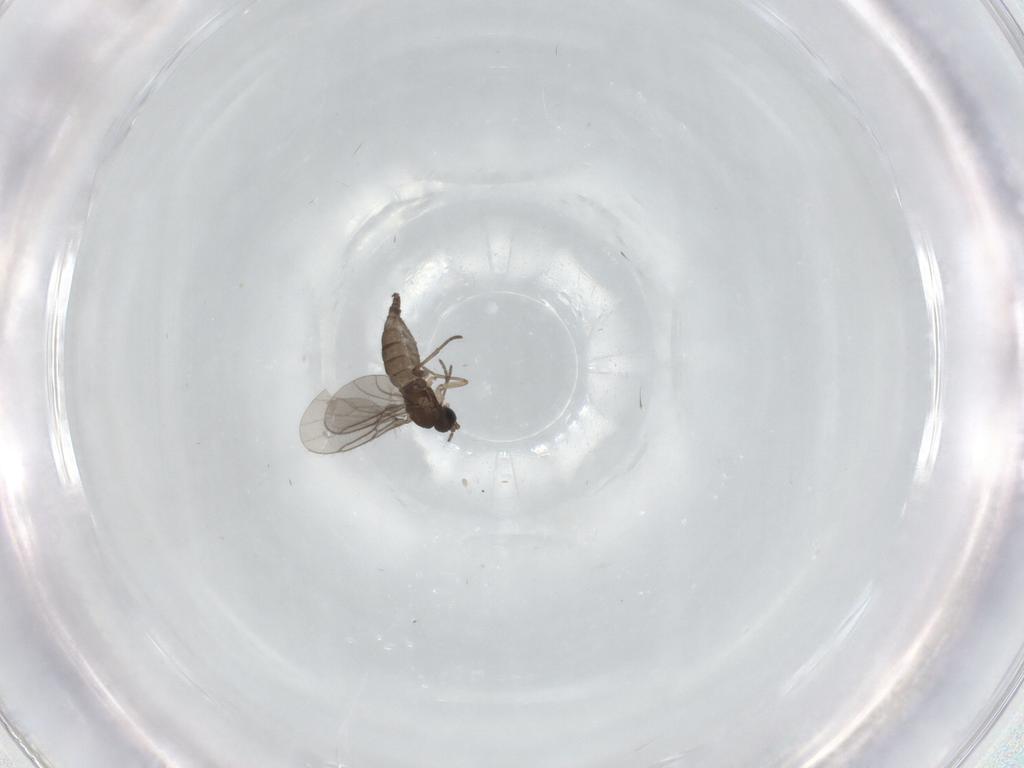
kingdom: Animalia
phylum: Arthropoda
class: Insecta
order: Diptera
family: Sciaridae
